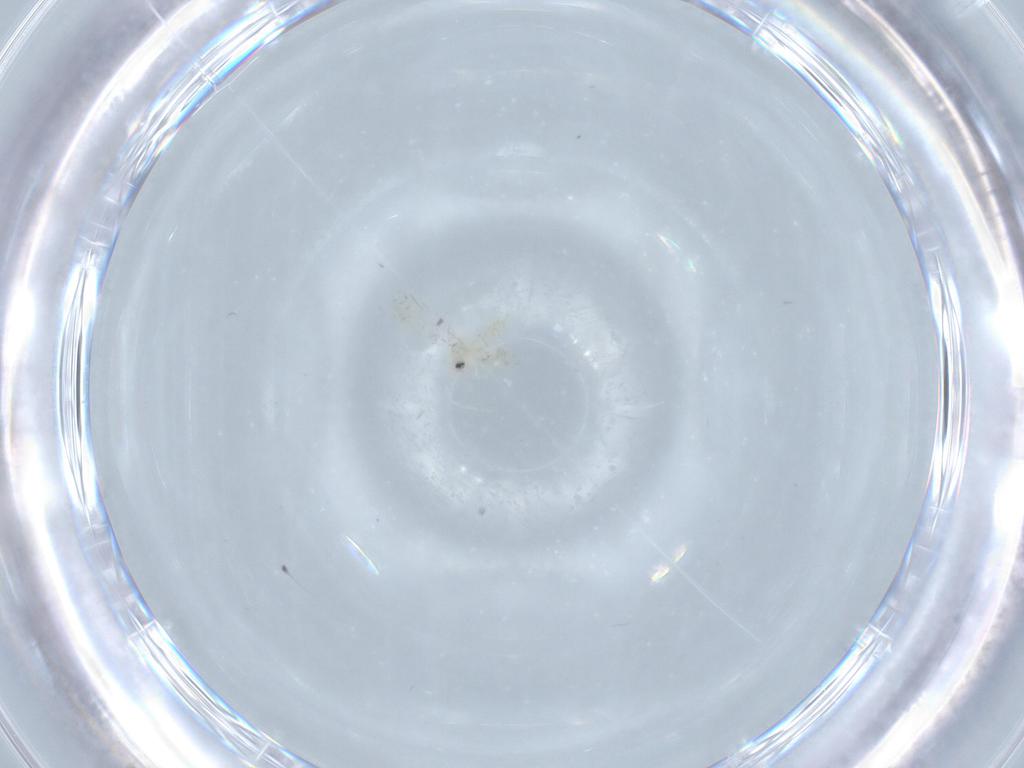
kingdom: Animalia
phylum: Arthropoda
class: Insecta
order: Hemiptera
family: Aleyrodidae
